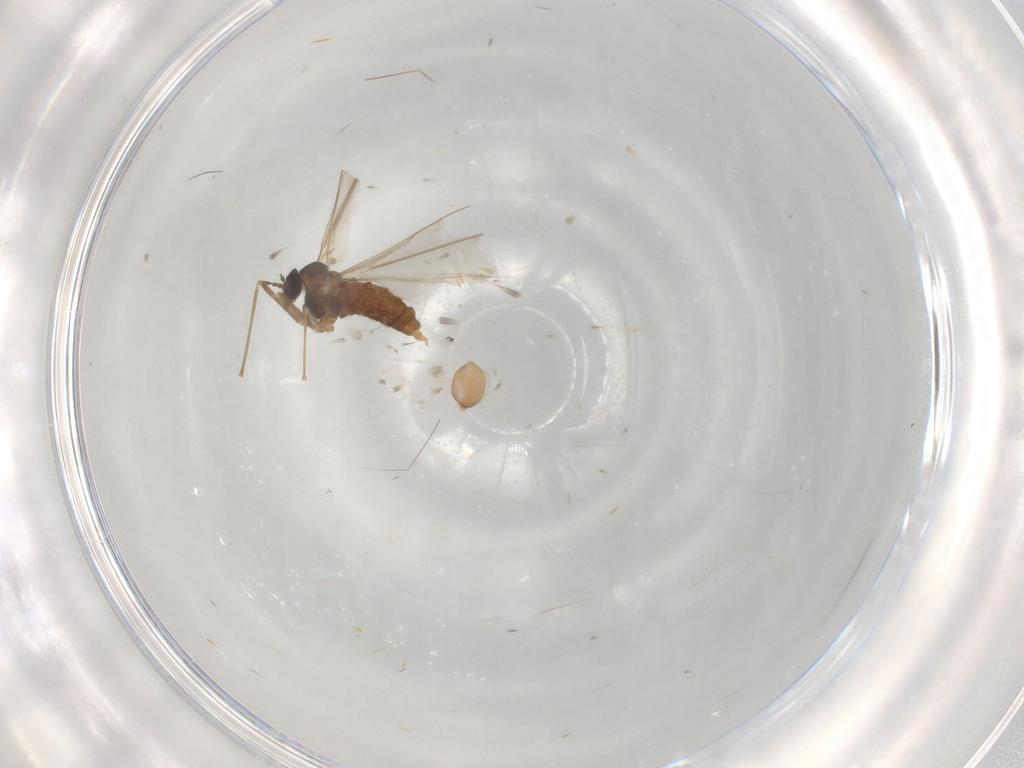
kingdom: Animalia
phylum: Arthropoda
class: Insecta
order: Diptera
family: Cecidomyiidae
